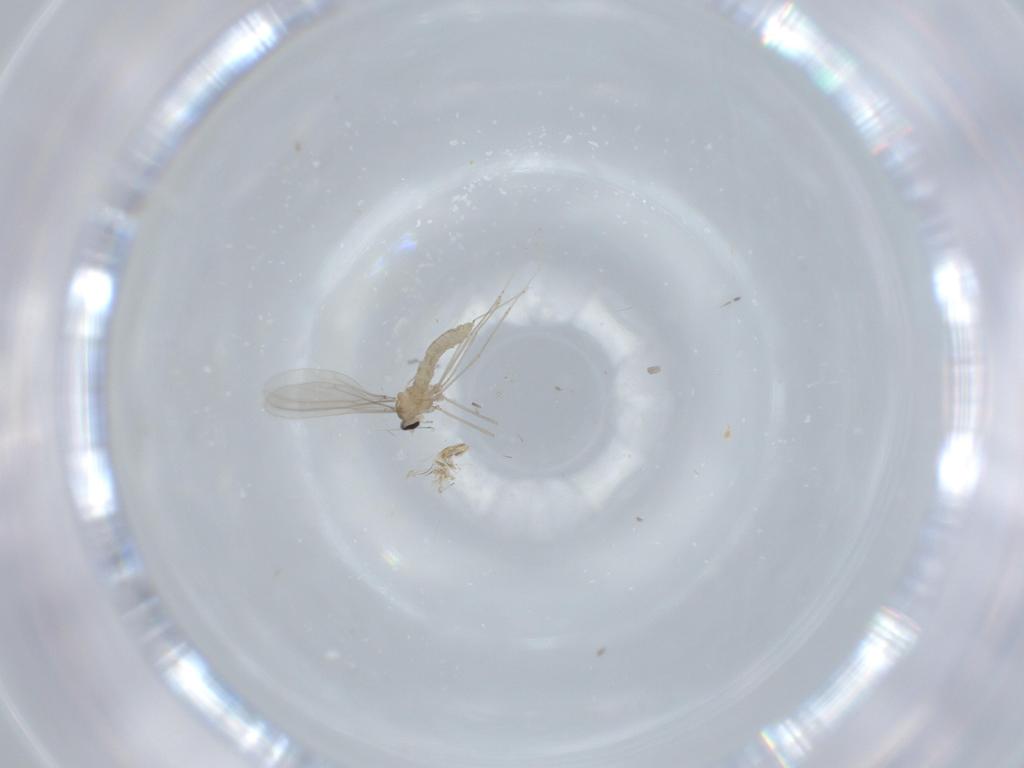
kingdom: Animalia
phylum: Arthropoda
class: Insecta
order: Diptera
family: Cecidomyiidae
